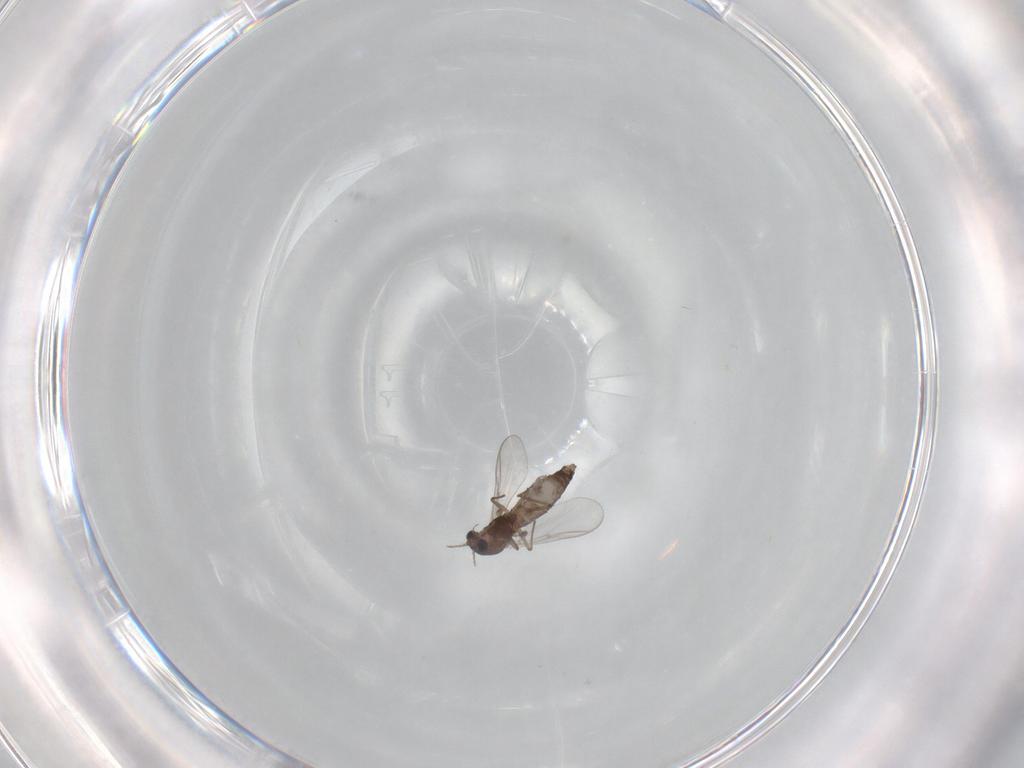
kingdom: Animalia
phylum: Arthropoda
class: Insecta
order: Diptera
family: Chironomidae
